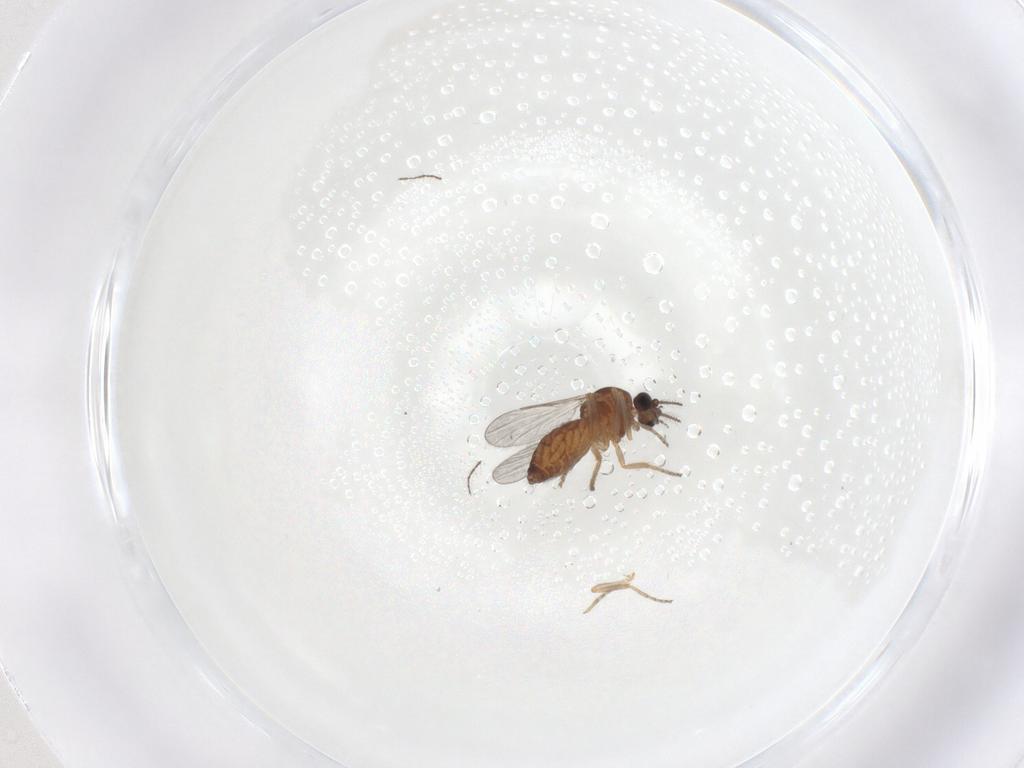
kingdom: Animalia
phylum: Arthropoda
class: Insecta
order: Diptera
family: Ceratopogonidae
